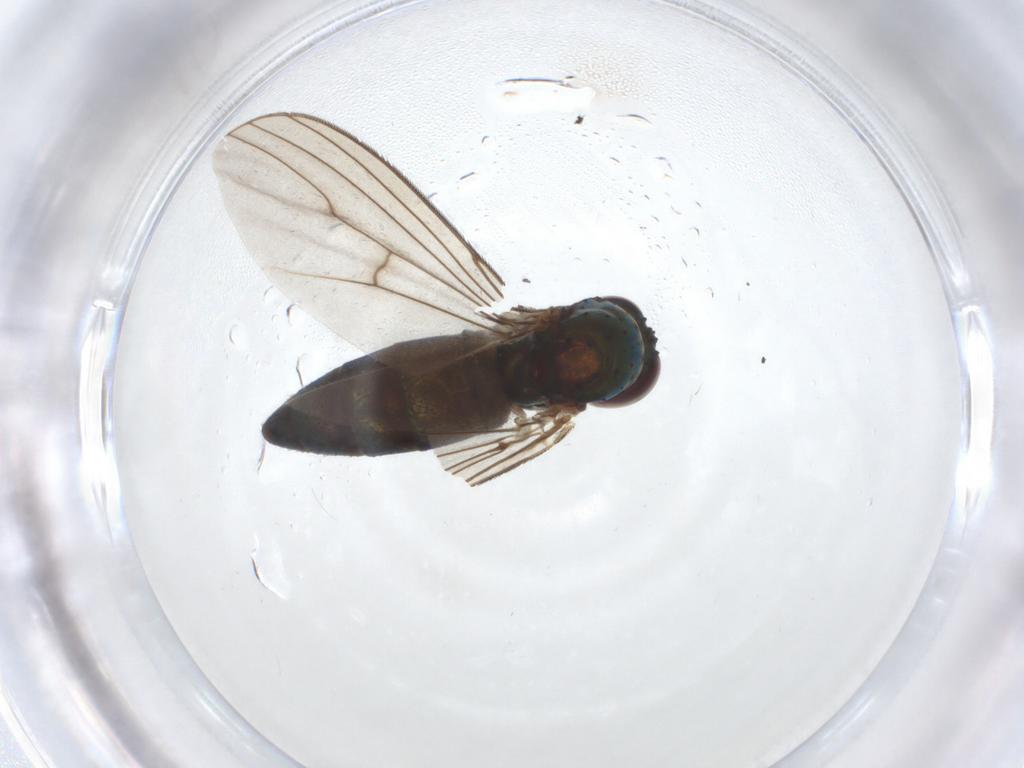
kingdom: Animalia
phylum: Arthropoda
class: Insecta
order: Diptera
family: Dolichopodidae
